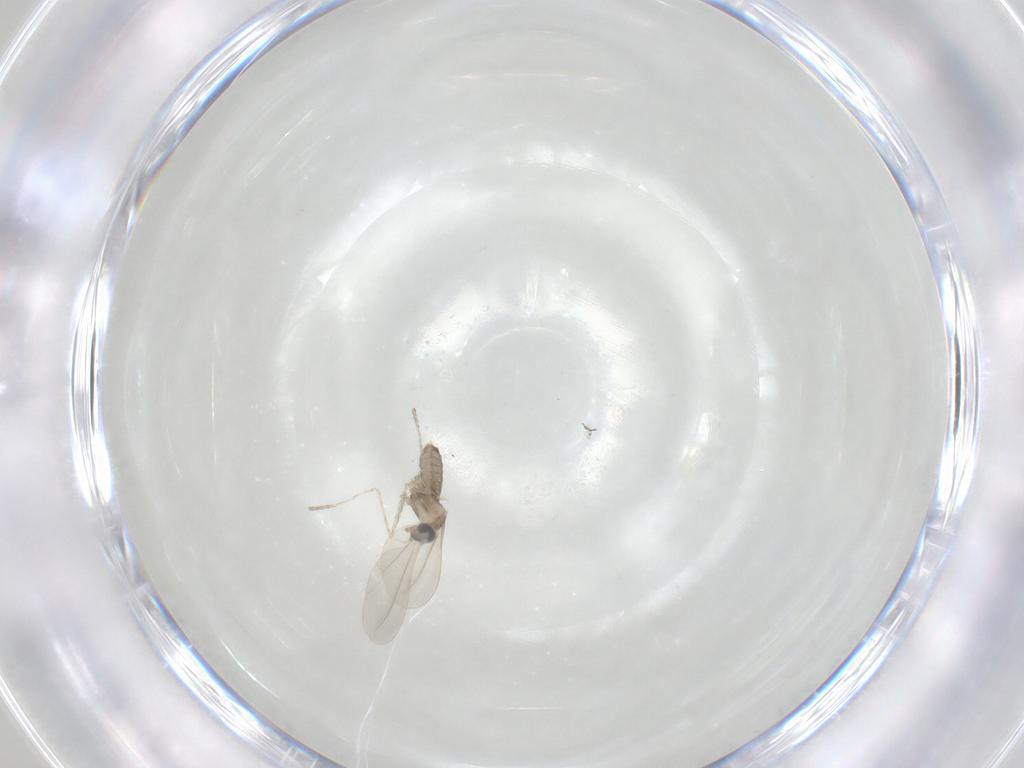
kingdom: Animalia
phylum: Arthropoda
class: Insecta
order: Diptera
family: Cecidomyiidae
